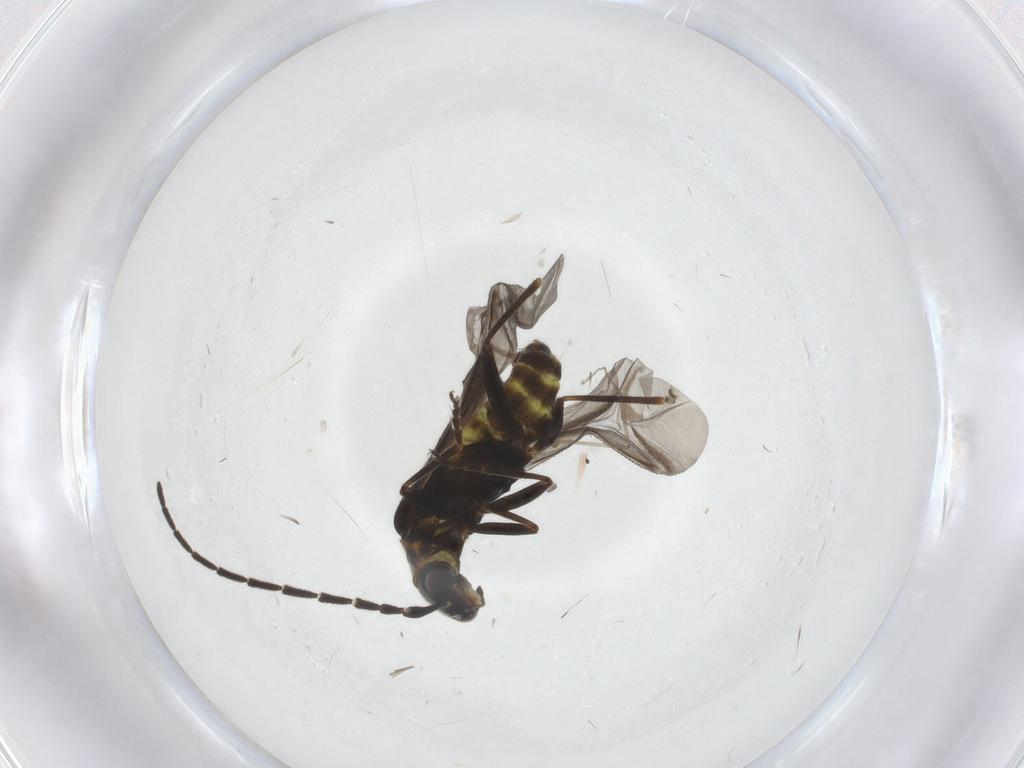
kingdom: Animalia
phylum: Arthropoda
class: Insecta
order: Coleoptera
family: Cantharidae
